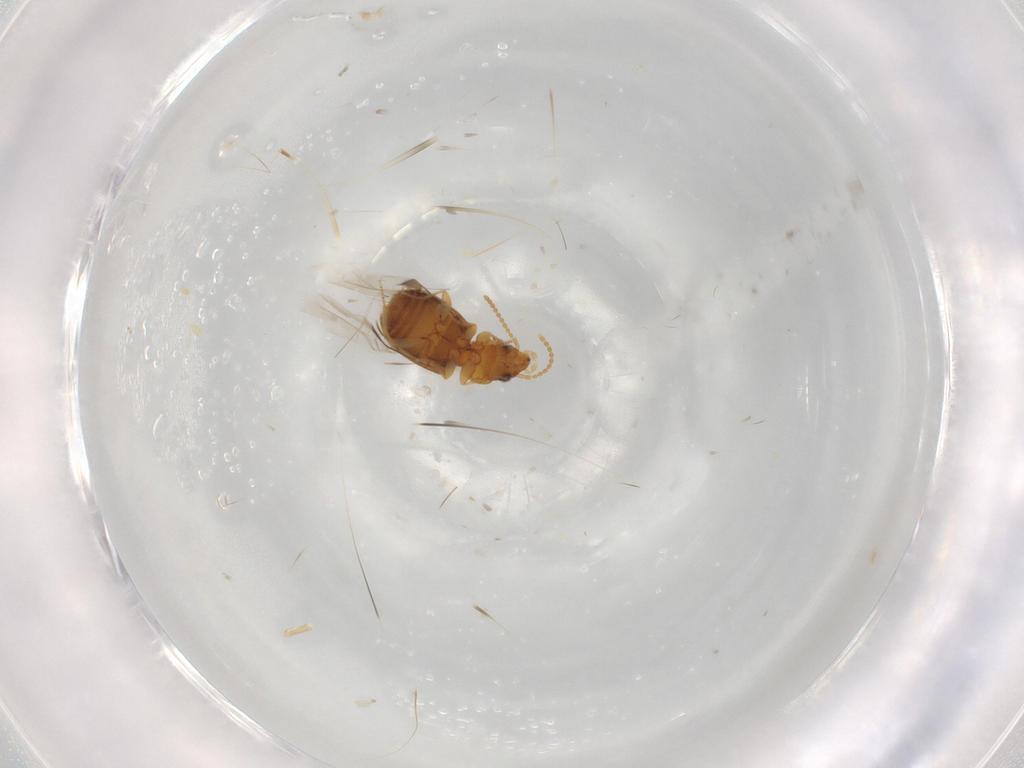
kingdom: Animalia
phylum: Arthropoda
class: Insecta
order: Coleoptera
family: Carabidae
